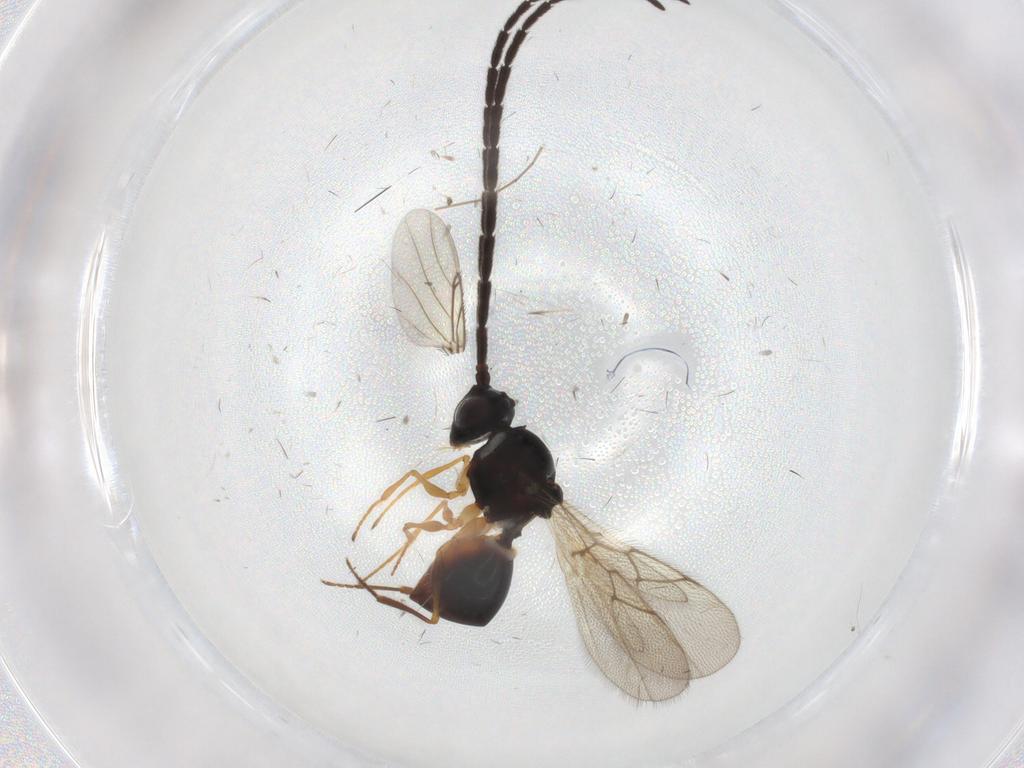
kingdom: Animalia
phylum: Arthropoda
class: Insecta
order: Hymenoptera
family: Figitidae
